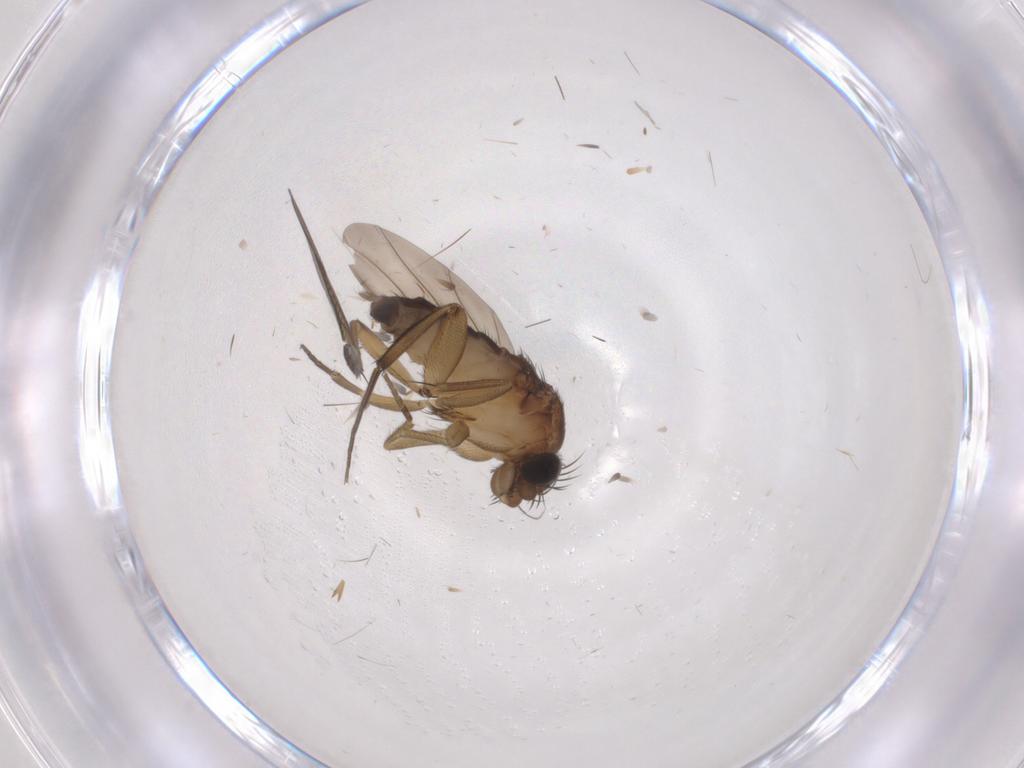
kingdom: Animalia
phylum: Arthropoda
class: Insecta
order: Diptera
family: Phoridae
